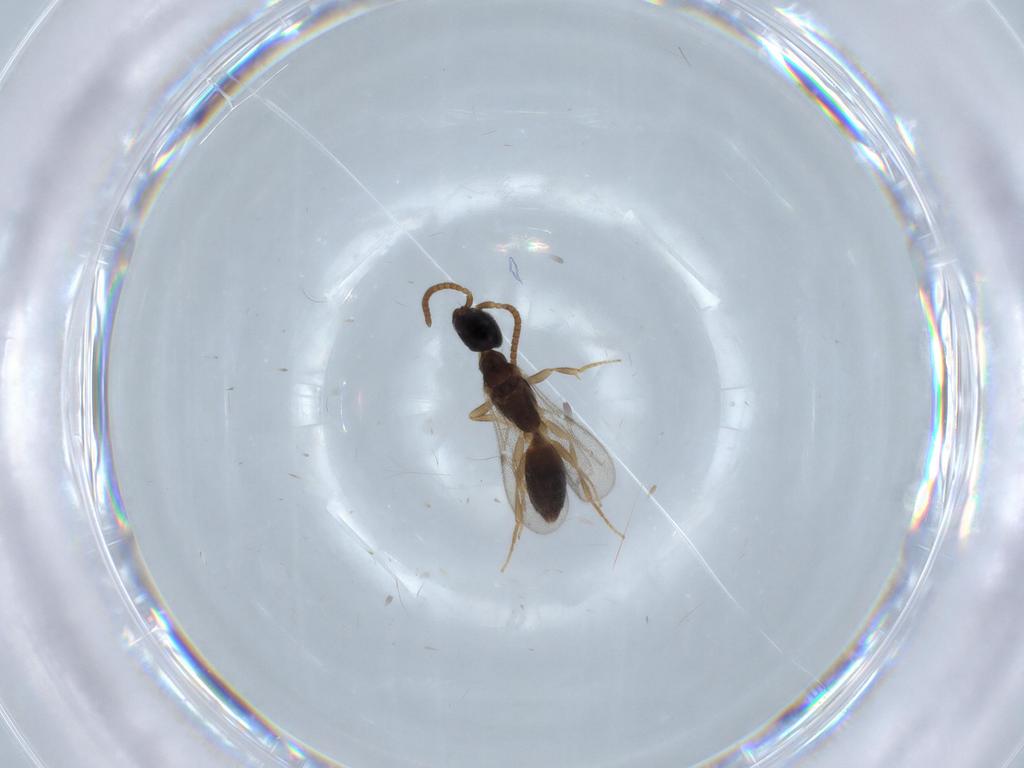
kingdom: Animalia
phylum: Arthropoda
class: Insecta
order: Hymenoptera
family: Bethylidae
